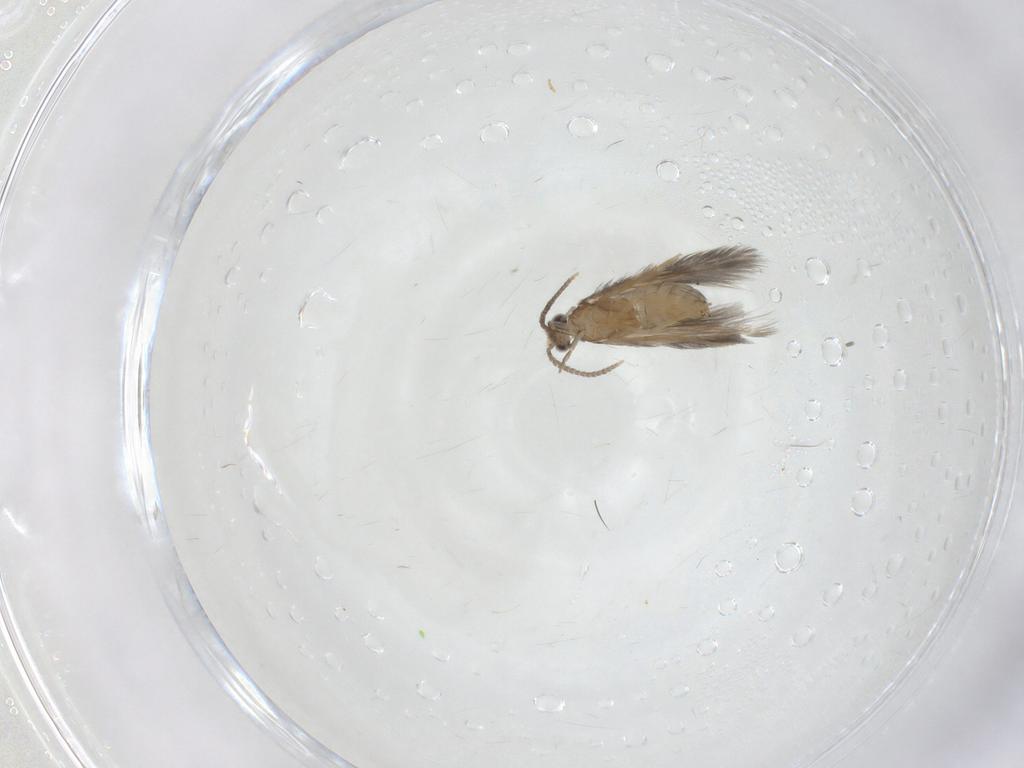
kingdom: Animalia
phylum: Arthropoda
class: Insecta
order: Trichoptera
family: Hydroptilidae
